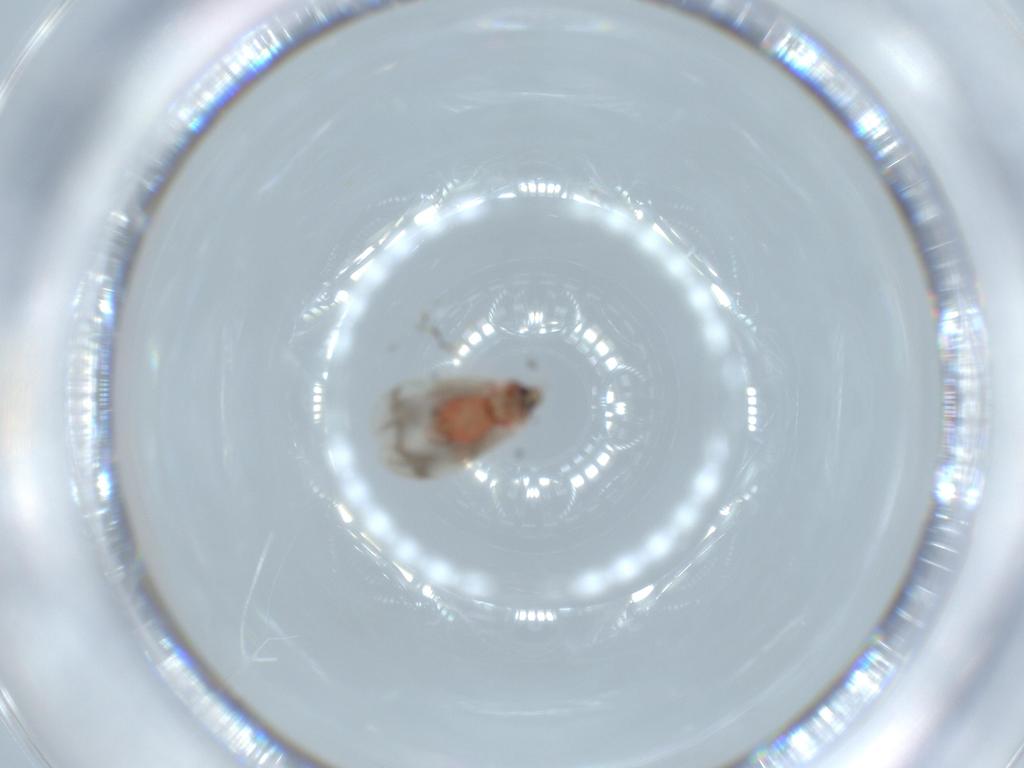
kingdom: Animalia
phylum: Arthropoda
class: Insecta
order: Hemiptera
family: Aleyrodidae
